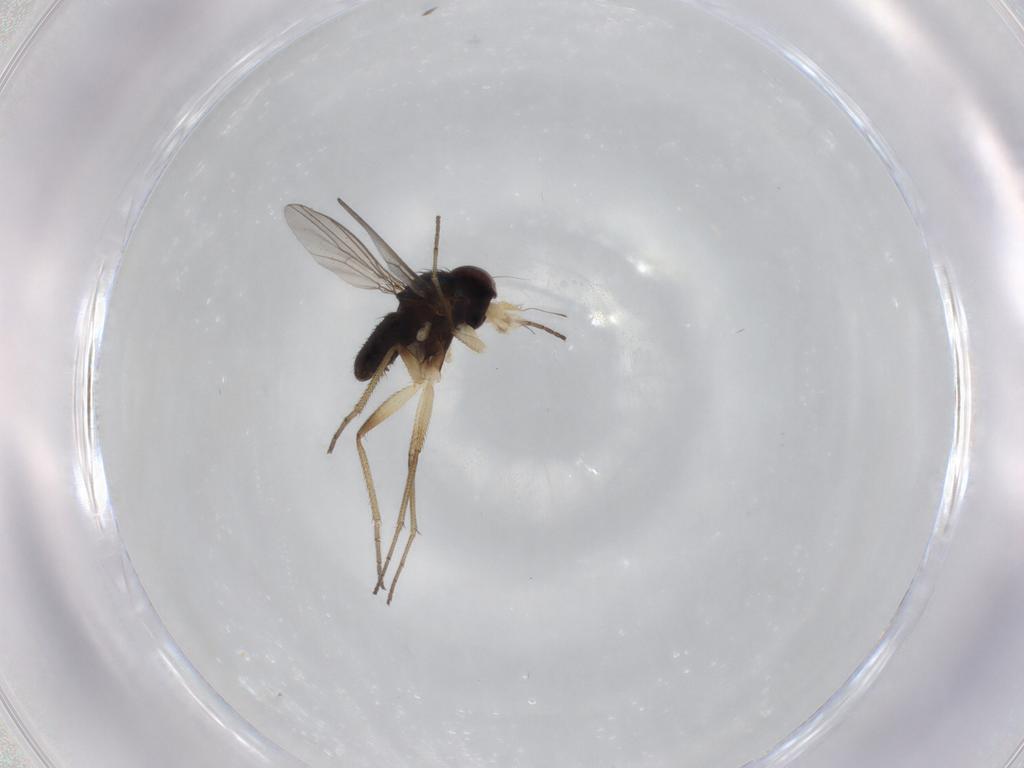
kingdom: Animalia
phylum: Arthropoda
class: Insecta
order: Diptera
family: Dolichopodidae
